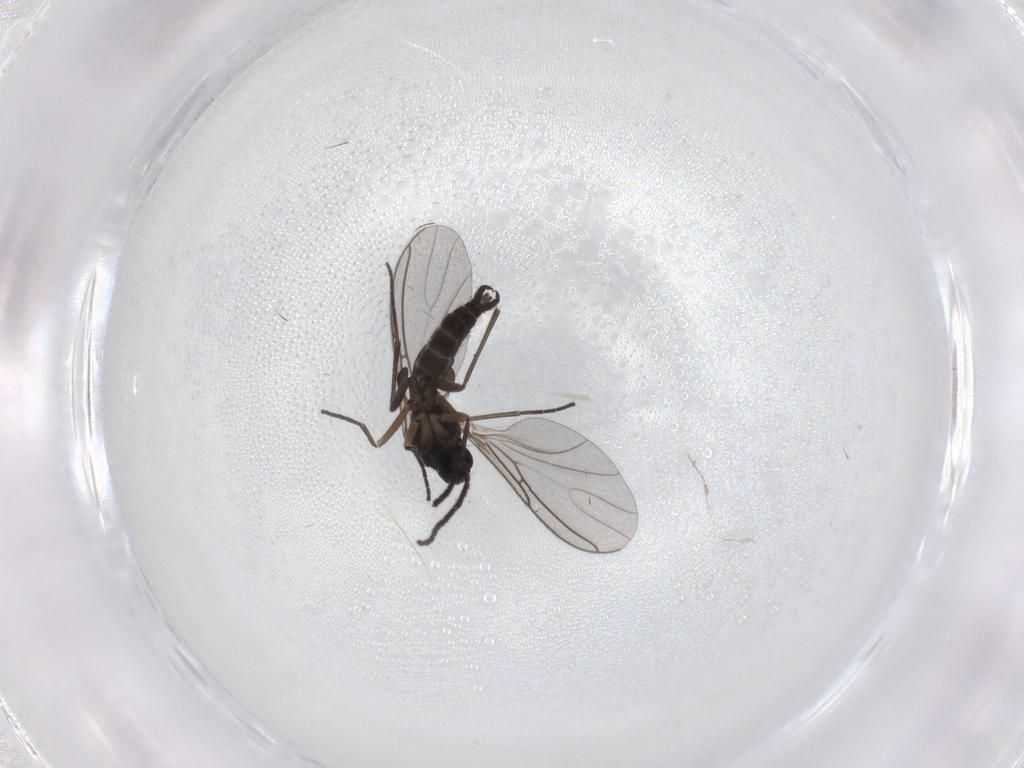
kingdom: Animalia
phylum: Arthropoda
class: Insecta
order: Diptera
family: Sciaridae
